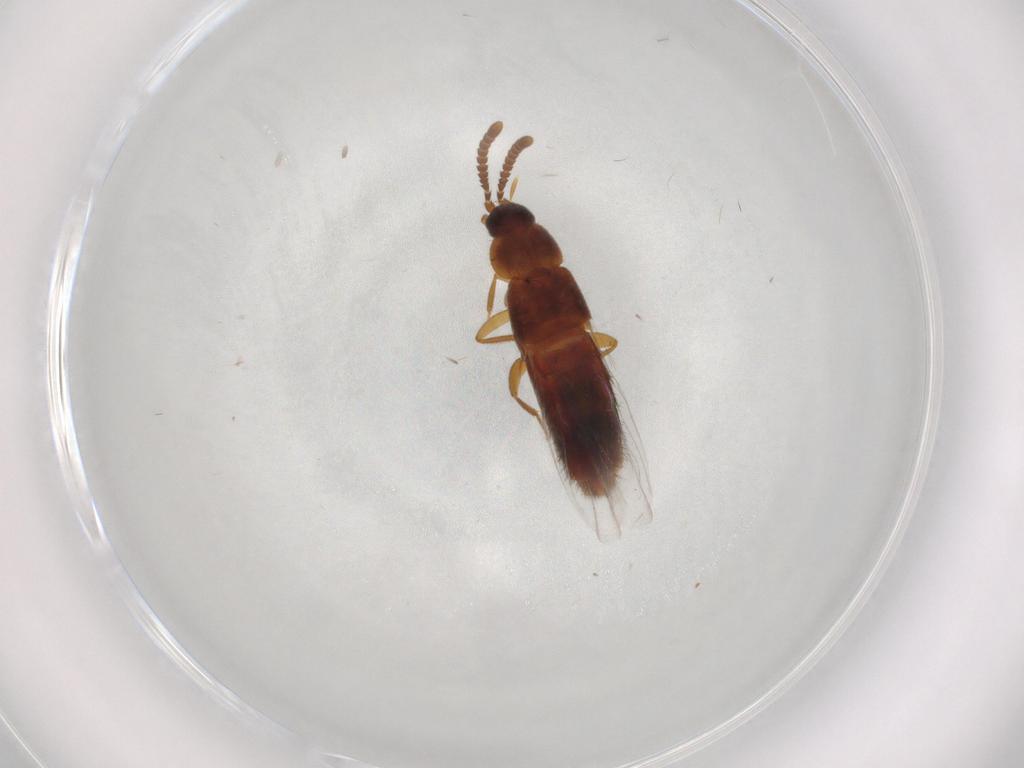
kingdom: Animalia
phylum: Arthropoda
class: Insecta
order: Coleoptera
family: Staphylinidae
